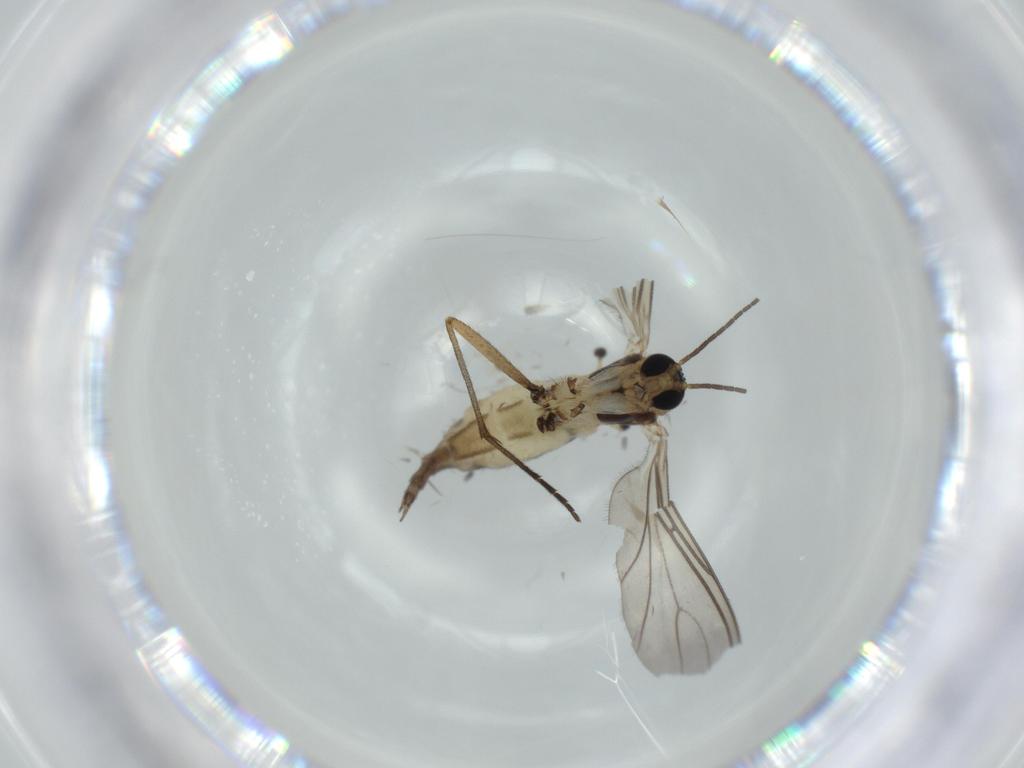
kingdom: Animalia
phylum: Arthropoda
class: Insecta
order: Diptera
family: Sciaridae
